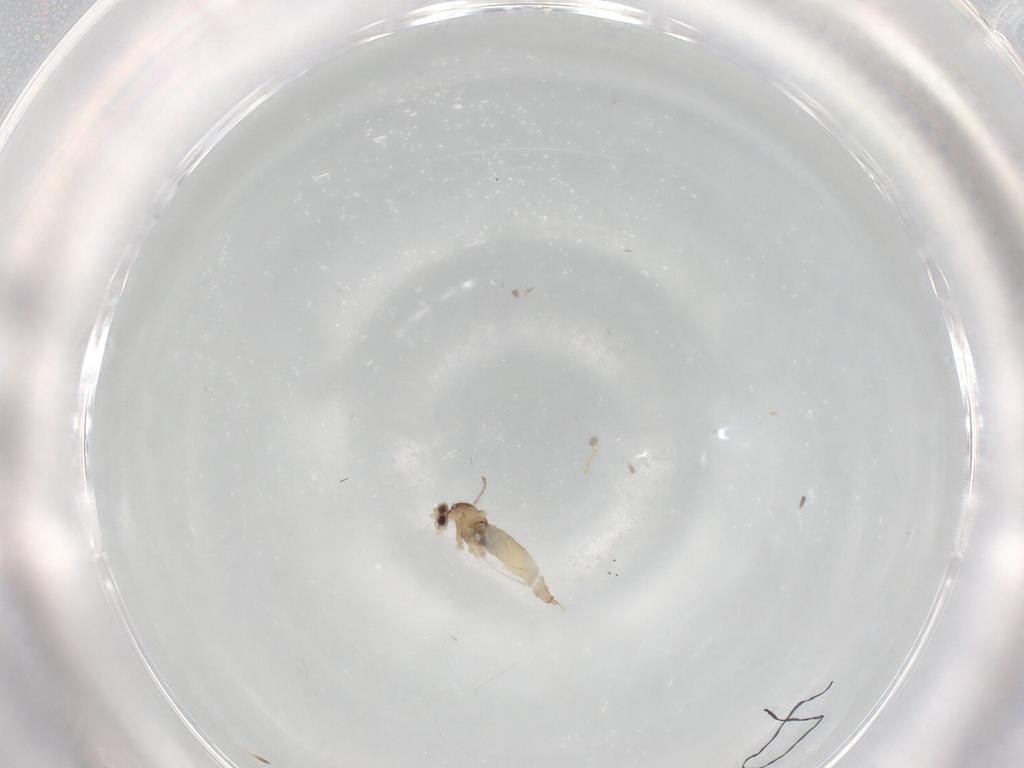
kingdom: Animalia
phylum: Arthropoda
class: Insecta
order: Diptera
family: Cecidomyiidae
